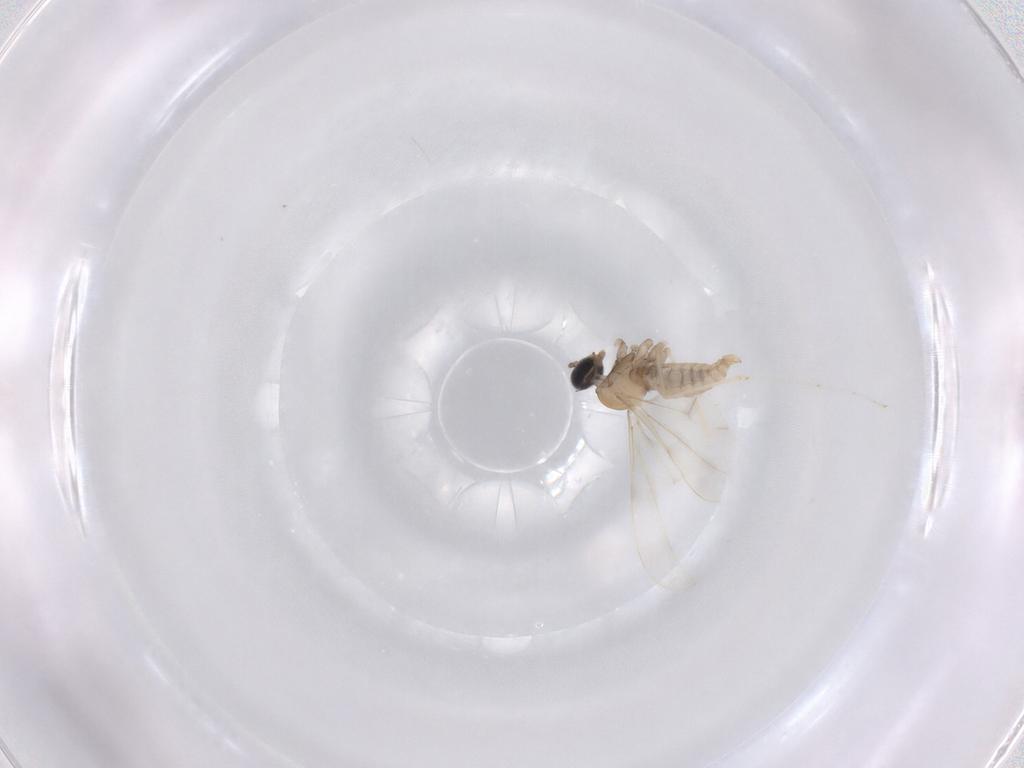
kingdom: Animalia
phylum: Arthropoda
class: Insecta
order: Diptera
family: Cecidomyiidae
